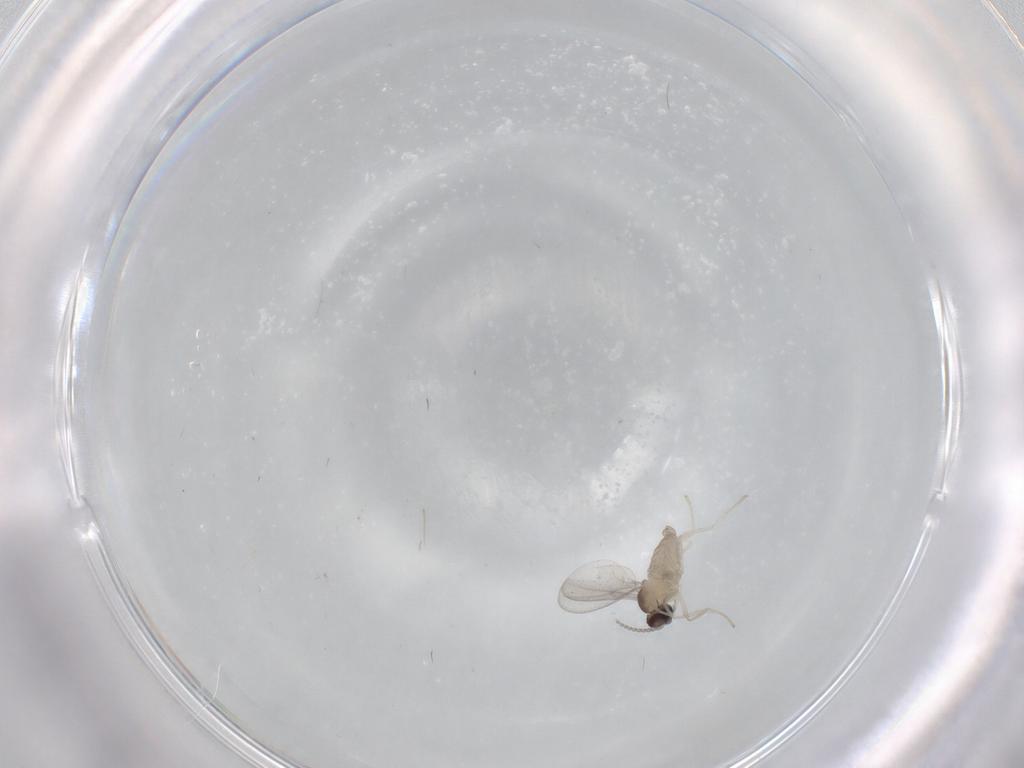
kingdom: Animalia
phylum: Arthropoda
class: Insecta
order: Diptera
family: Cecidomyiidae
